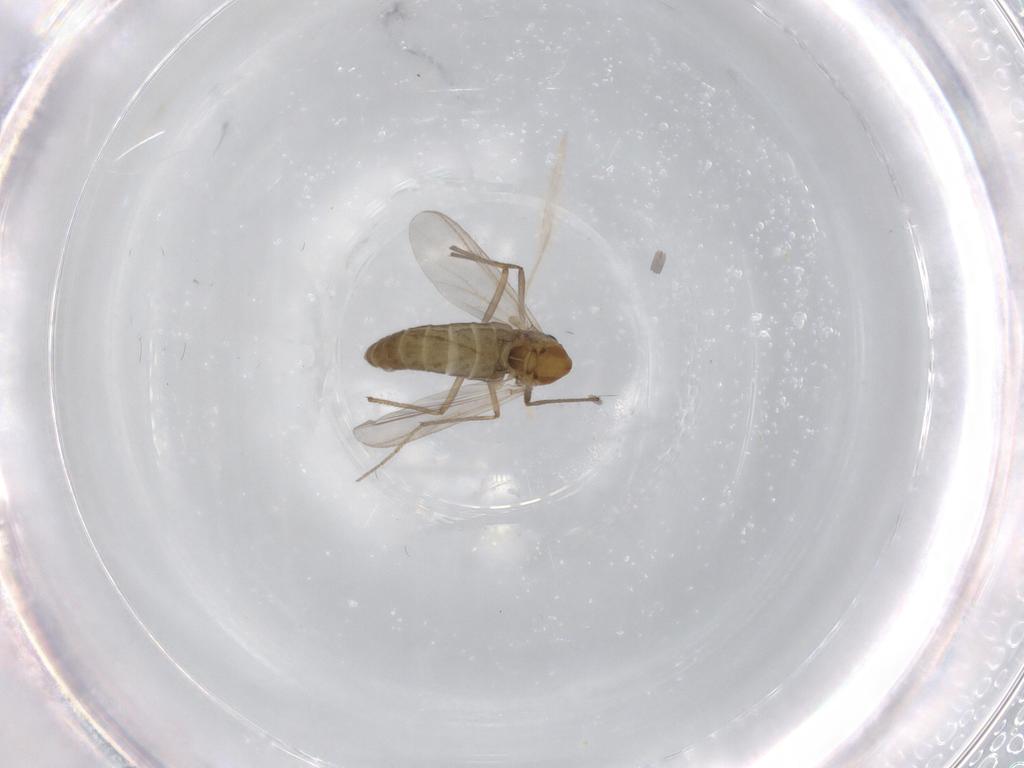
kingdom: Animalia
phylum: Arthropoda
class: Insecta
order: Diptera
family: Chironomidae
